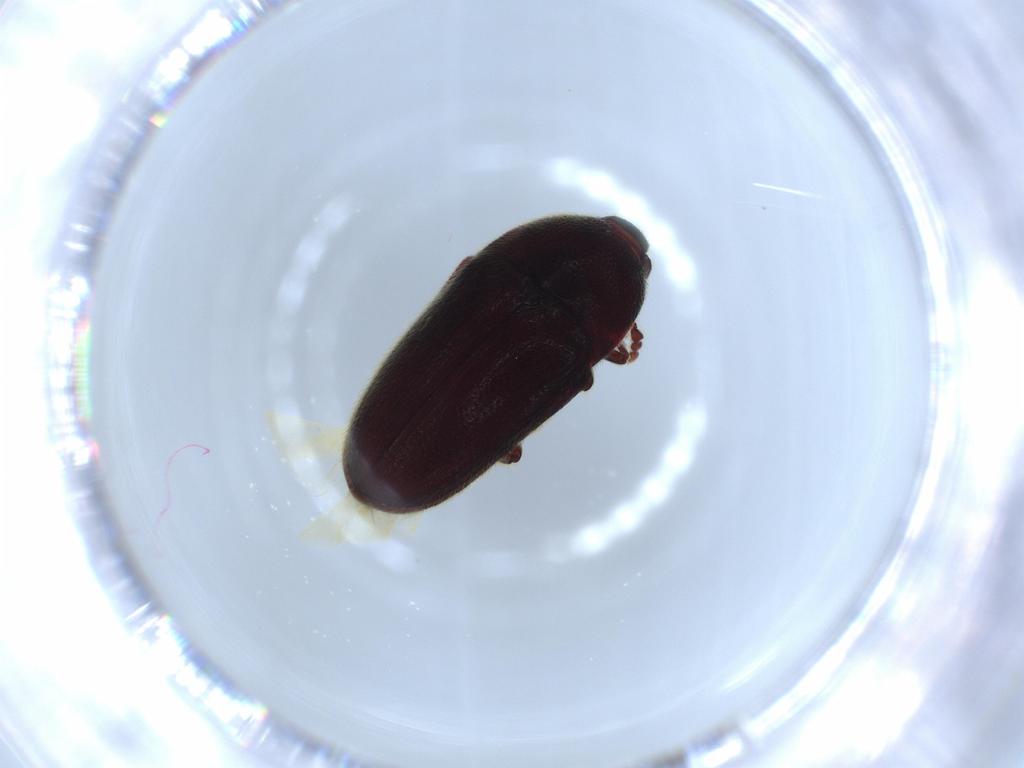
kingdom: Animalia
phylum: Arthropoda
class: Insecta
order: Coleoptera
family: Throscidae
